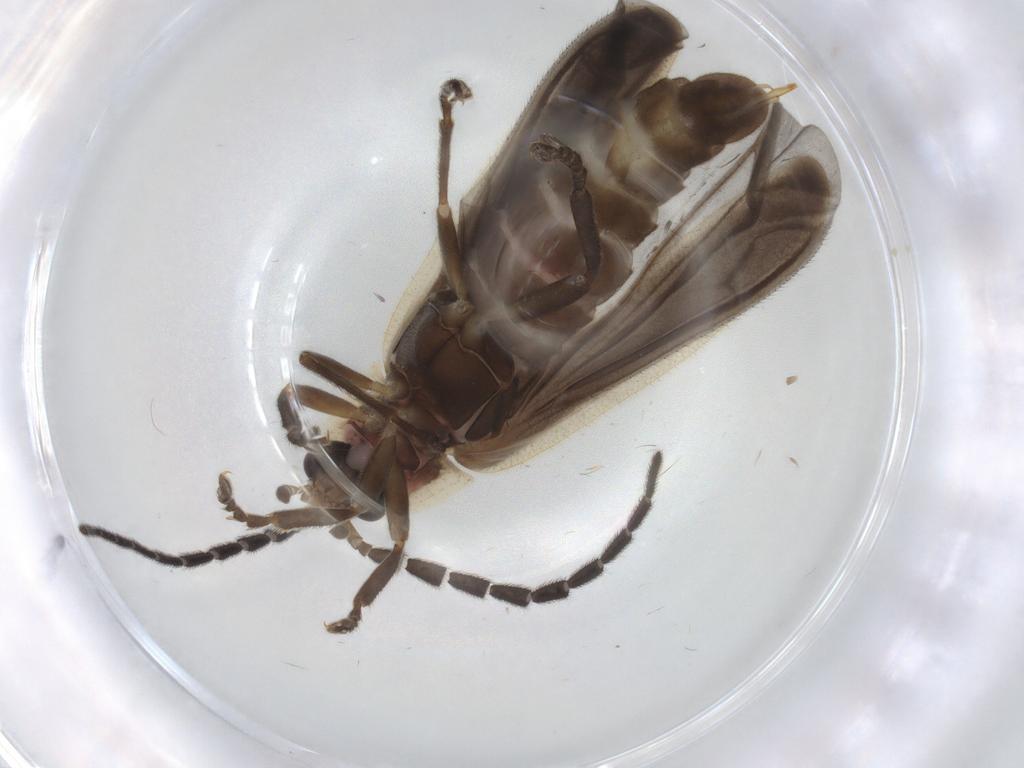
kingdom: Animalia
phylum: Arthropoda
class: Insecta
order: Coleoptera
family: Lampyridae
